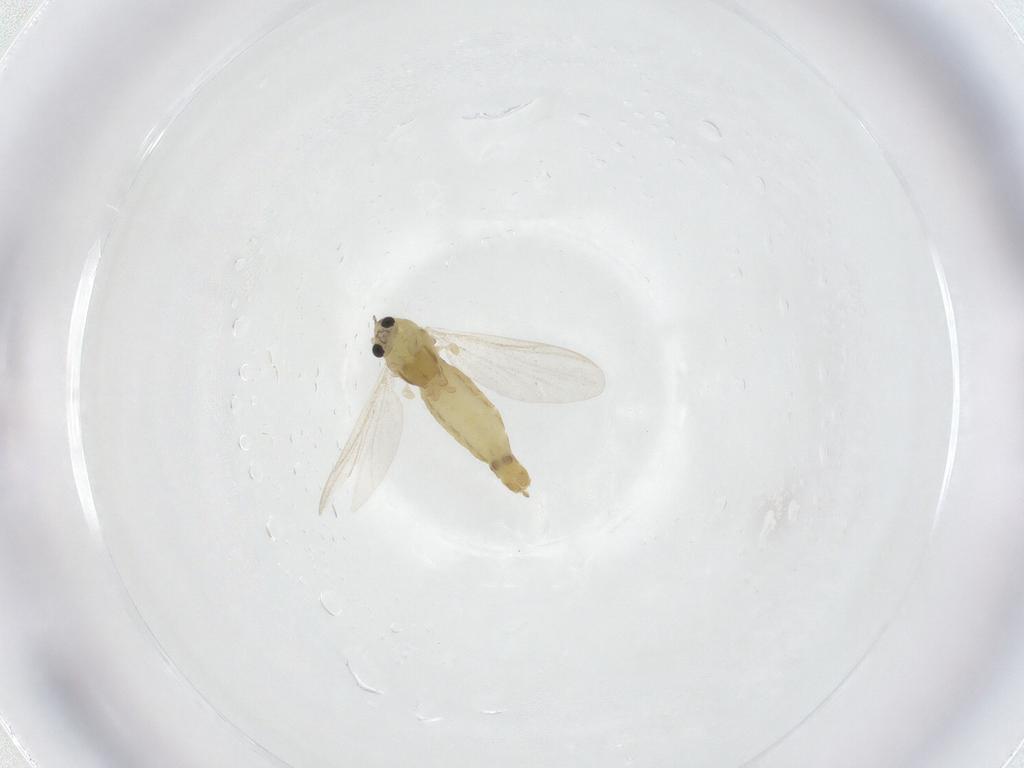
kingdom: Animalia
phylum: Arthropoda
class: Insecta
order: Diptera
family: Chironomidae
